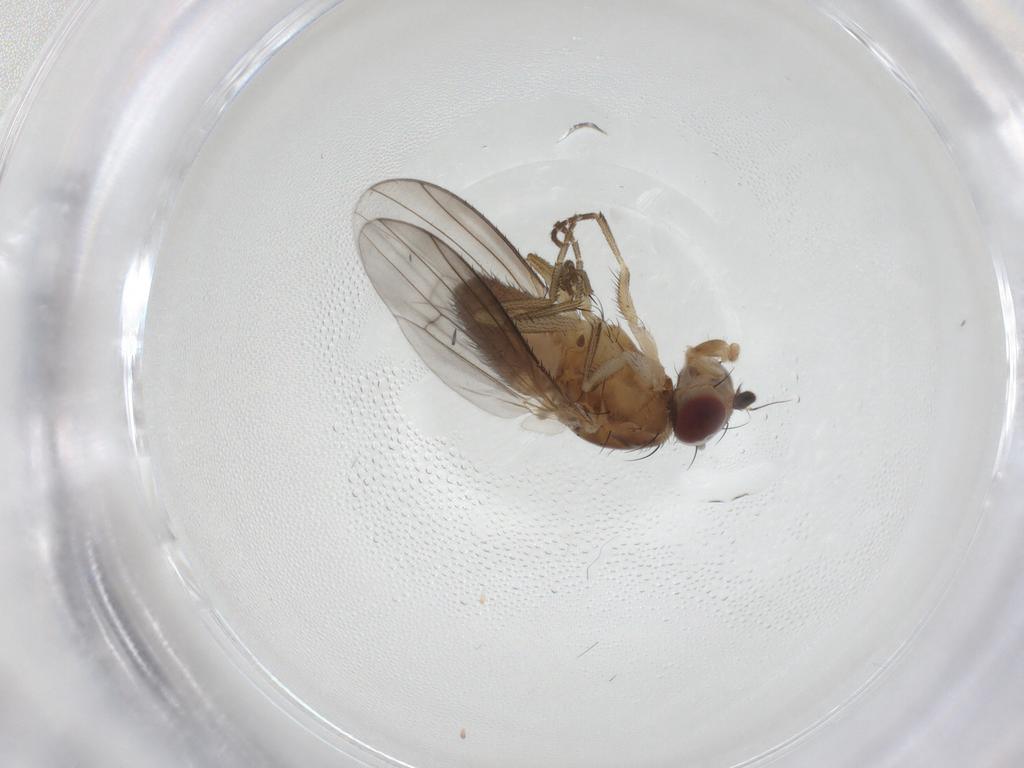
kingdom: Animalia
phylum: Arthropoda
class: Insecta
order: Diptera
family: Heleomyzidae
